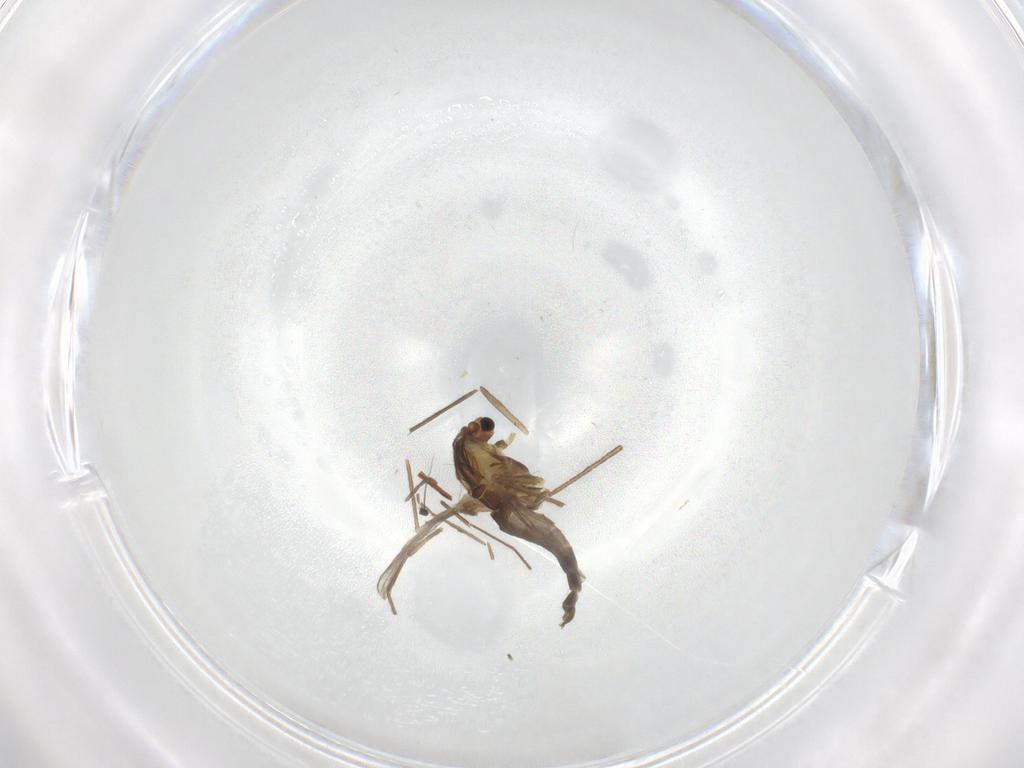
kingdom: Animalia
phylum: Arthropoda
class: Insecta
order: Diptera
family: Chironomidae
